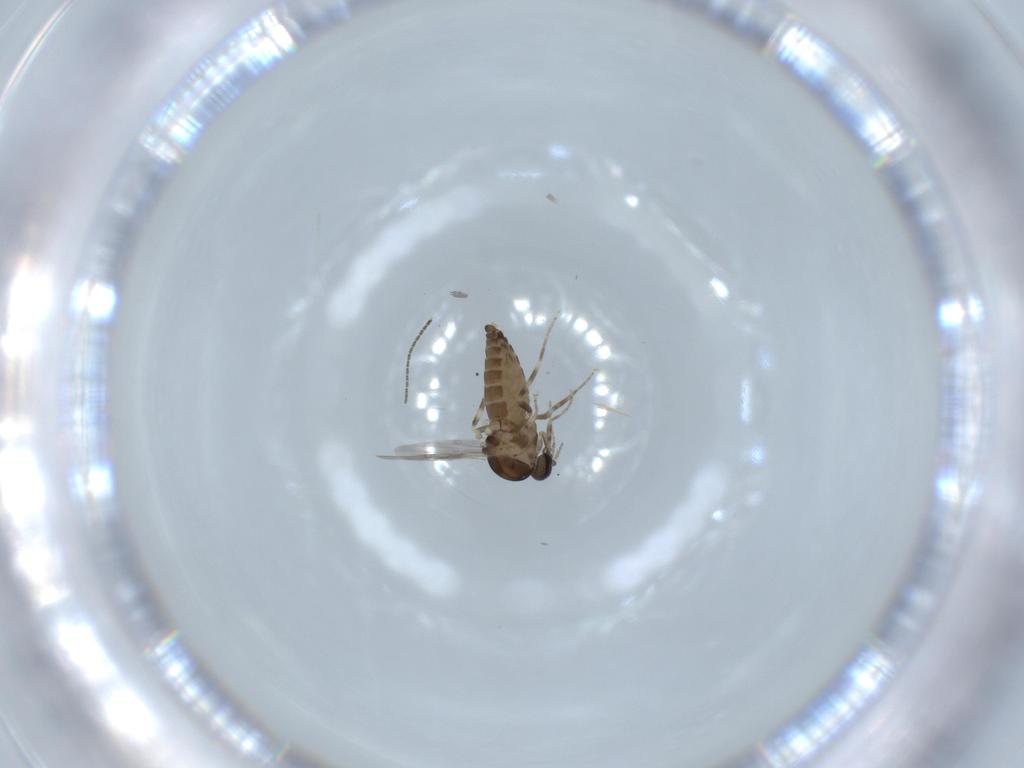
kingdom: Animalia
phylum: Arthropoda
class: Insecta
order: Diptera
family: Ceratopogonidae
